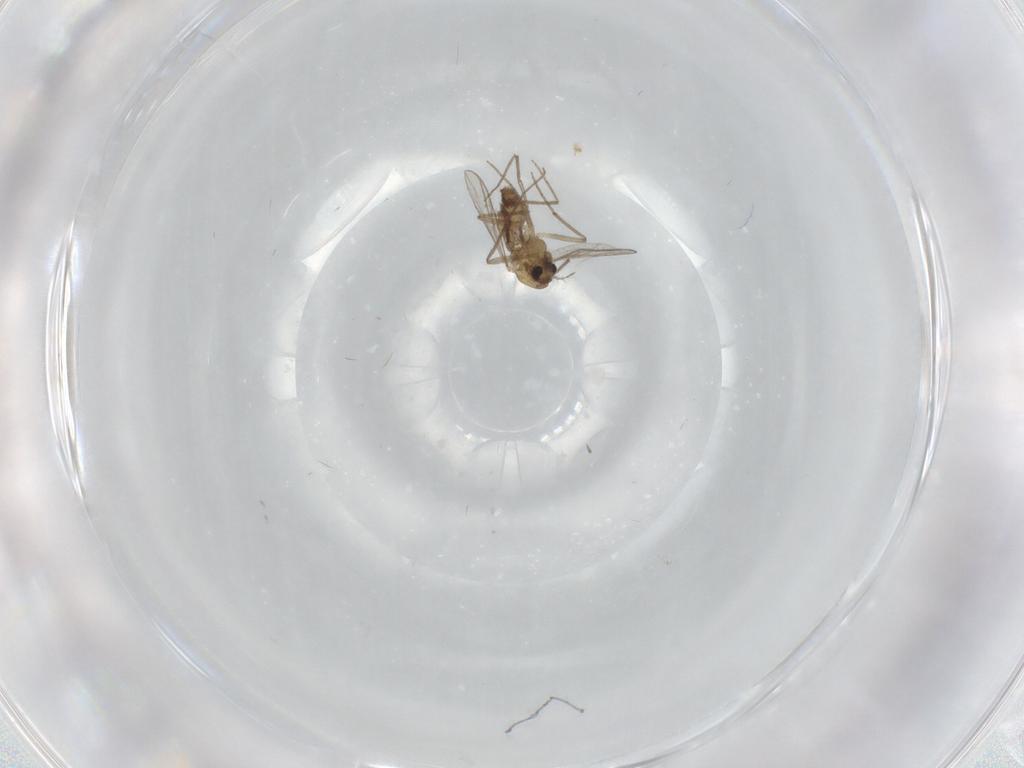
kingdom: Animalia
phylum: Arthropoda
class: Insecta
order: Diptera
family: Chironomidae
